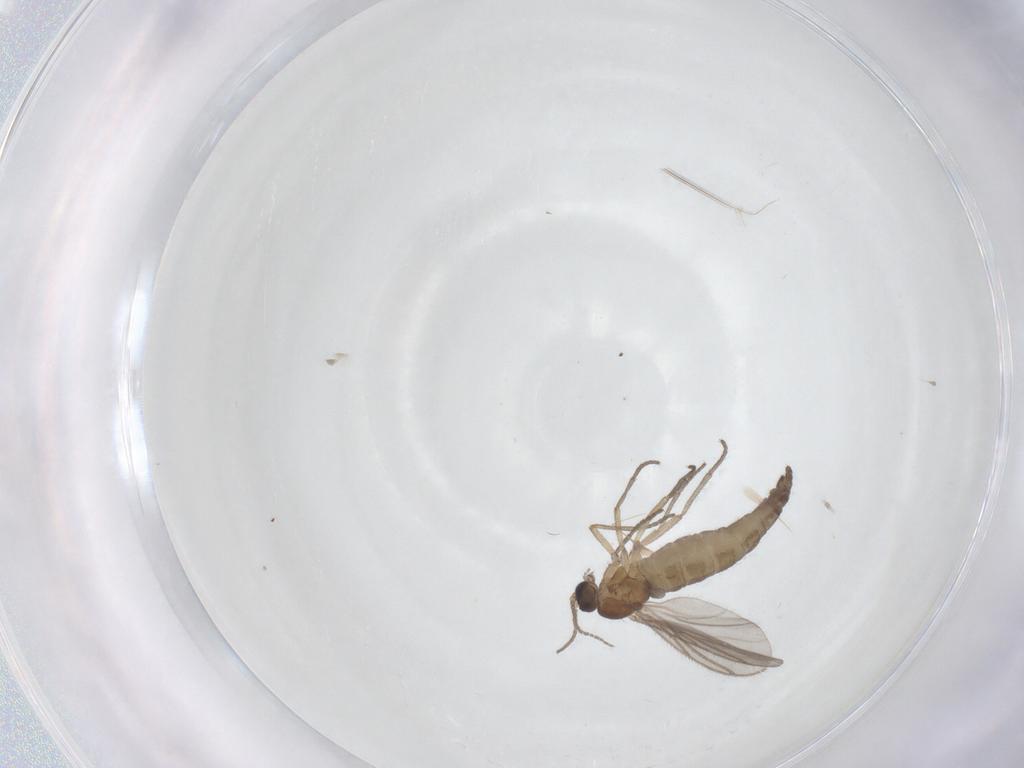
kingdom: Animalia
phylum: Arthropoda
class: Insecta
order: Diptera
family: Sciaridae
